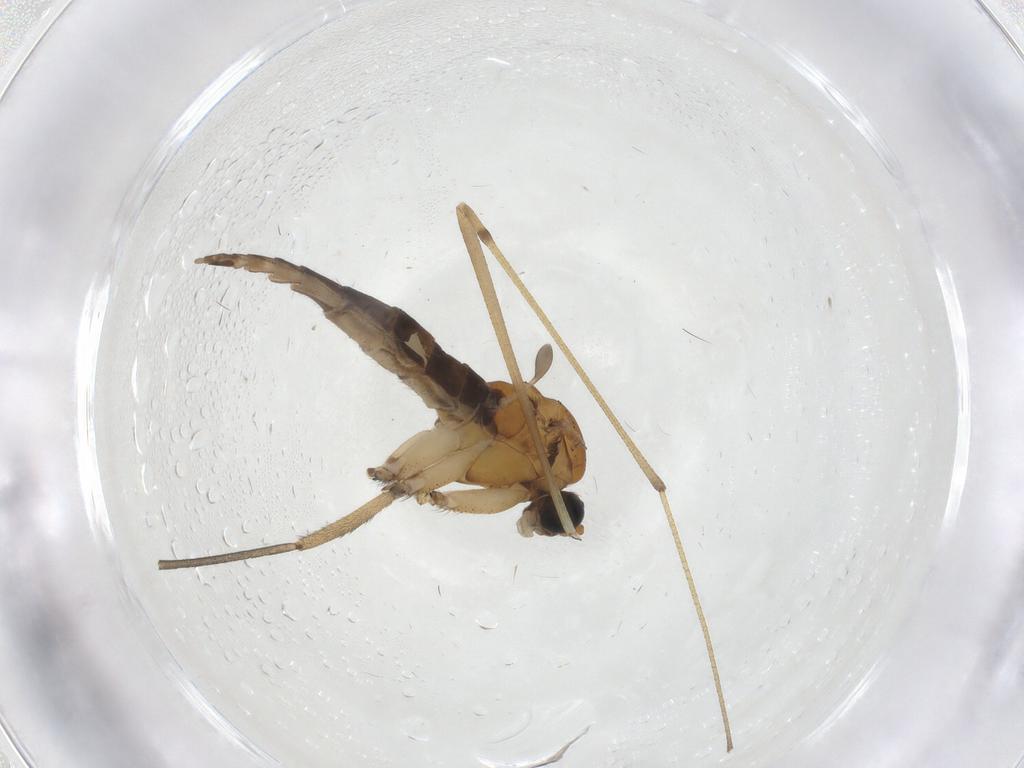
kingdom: Animalia
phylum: Arthropoda
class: Insecta
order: Diptera
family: Sciaridae
